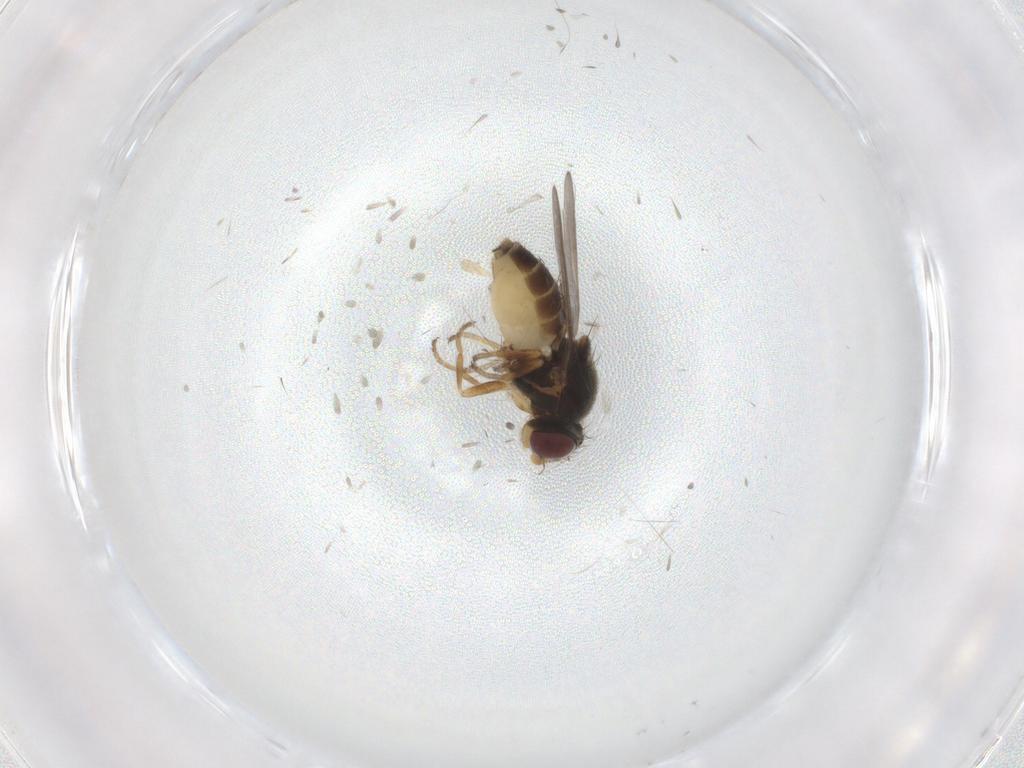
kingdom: Animalia
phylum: Arthropoda
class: Insecta
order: Diptera
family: Chloropidae
